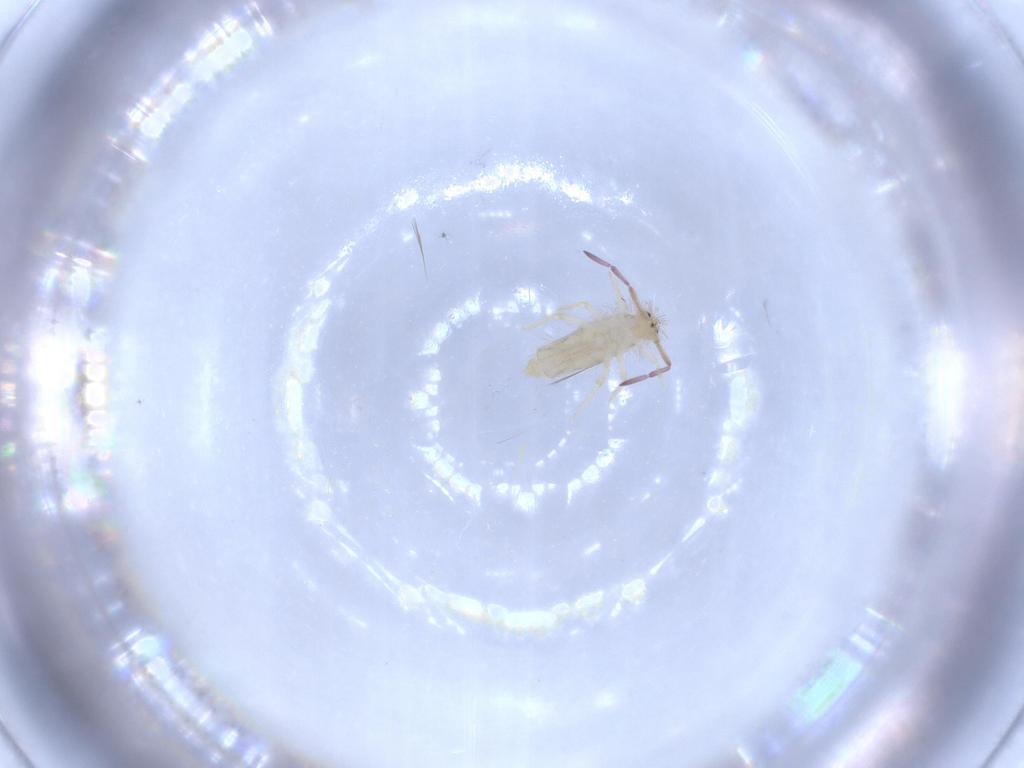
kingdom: Animalia
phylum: Arthropoda
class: Collembola
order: Entomobryomorpha
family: Entomobryidae
